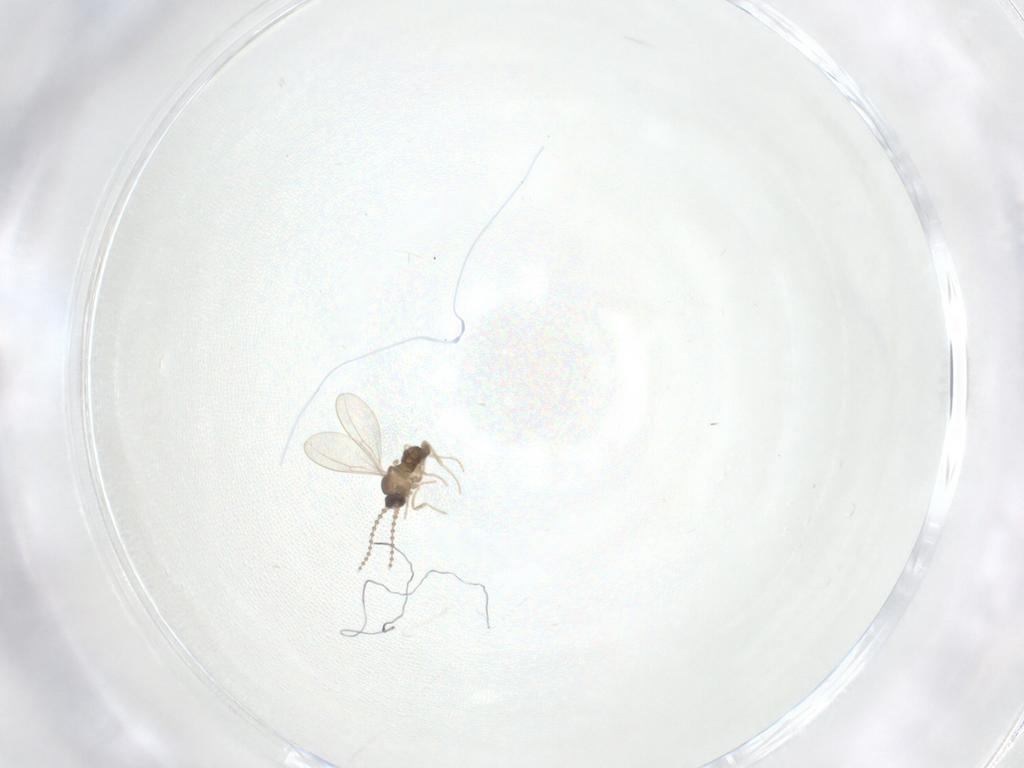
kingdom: Animalia
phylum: Arthropoda
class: Insecta
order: Diptera
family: Cecidomyiidae
